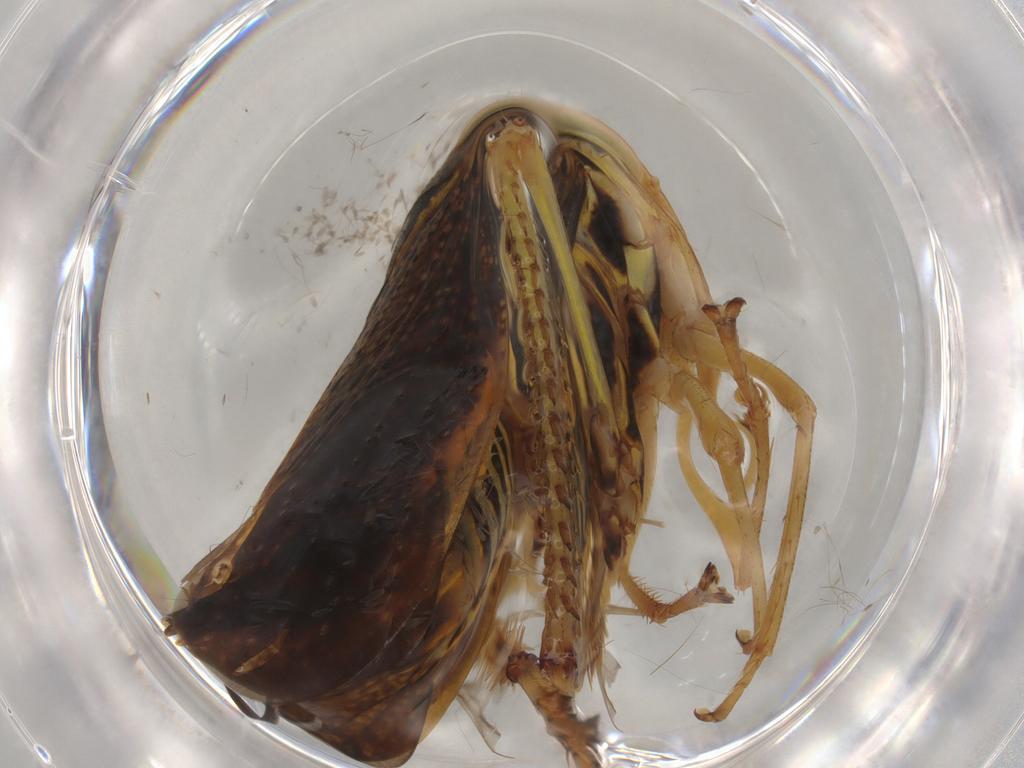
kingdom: Animalia
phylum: Arthropoda
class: Insecta
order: Hemiptera
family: Cicadellidae
